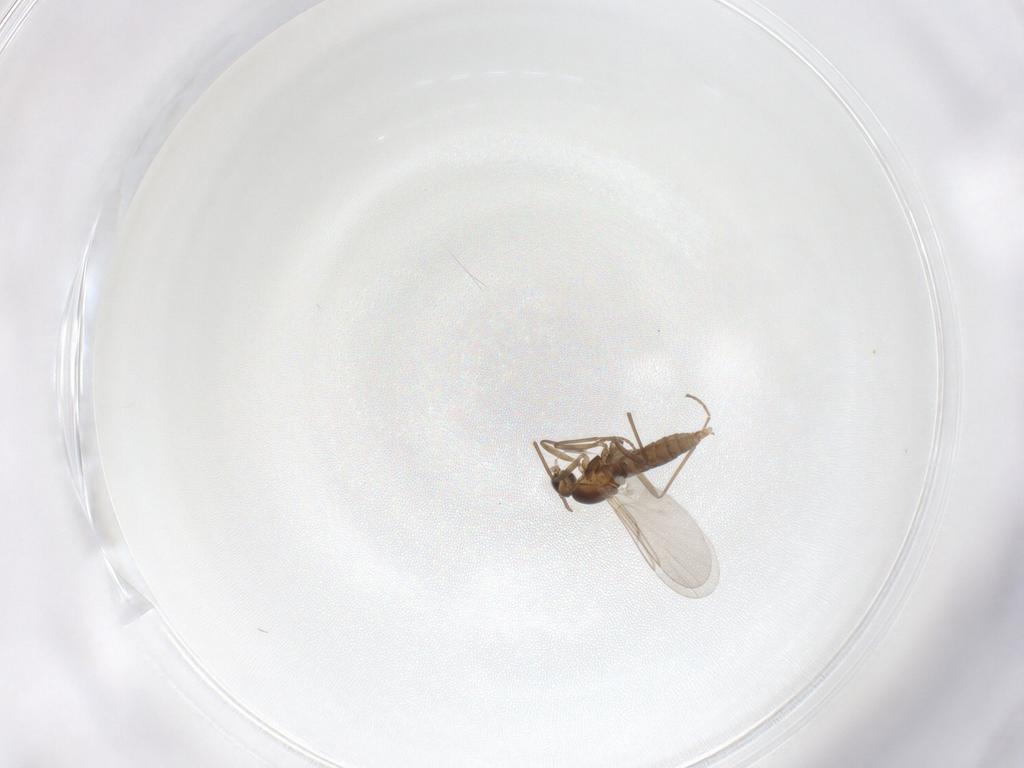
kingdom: Animalia
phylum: Arthropoda
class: Insecta
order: Diptera
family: Cecidomyiidae
